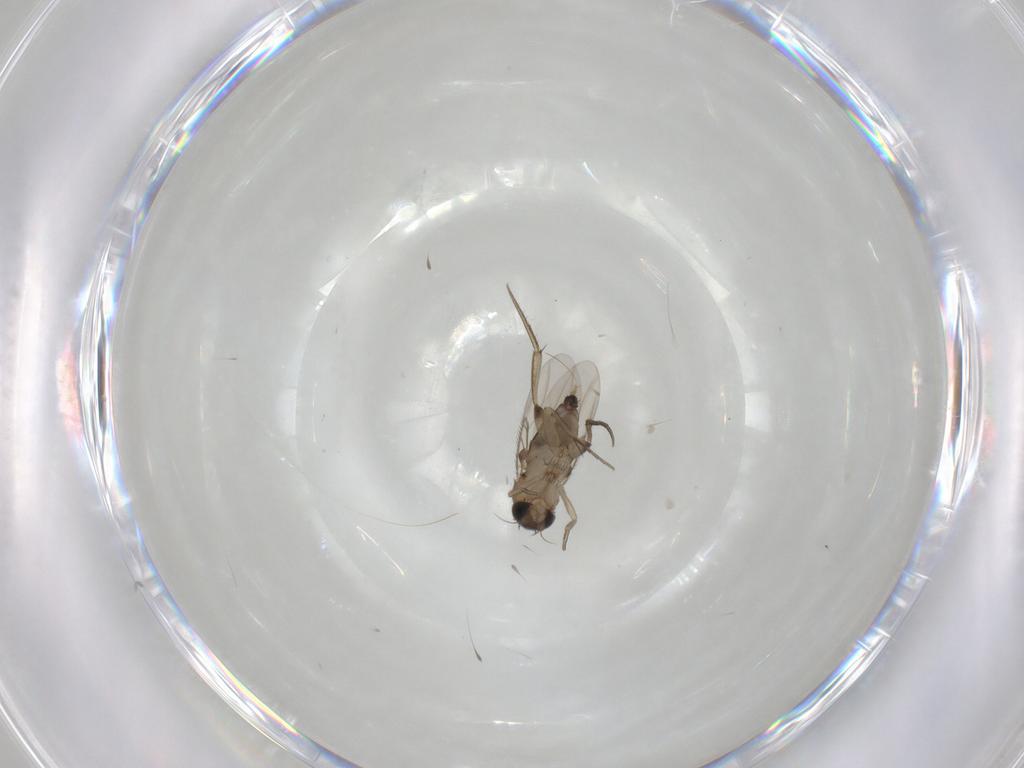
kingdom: Animalia
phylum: Arthropoda
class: Insecta
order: Diptera
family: Phoridae
